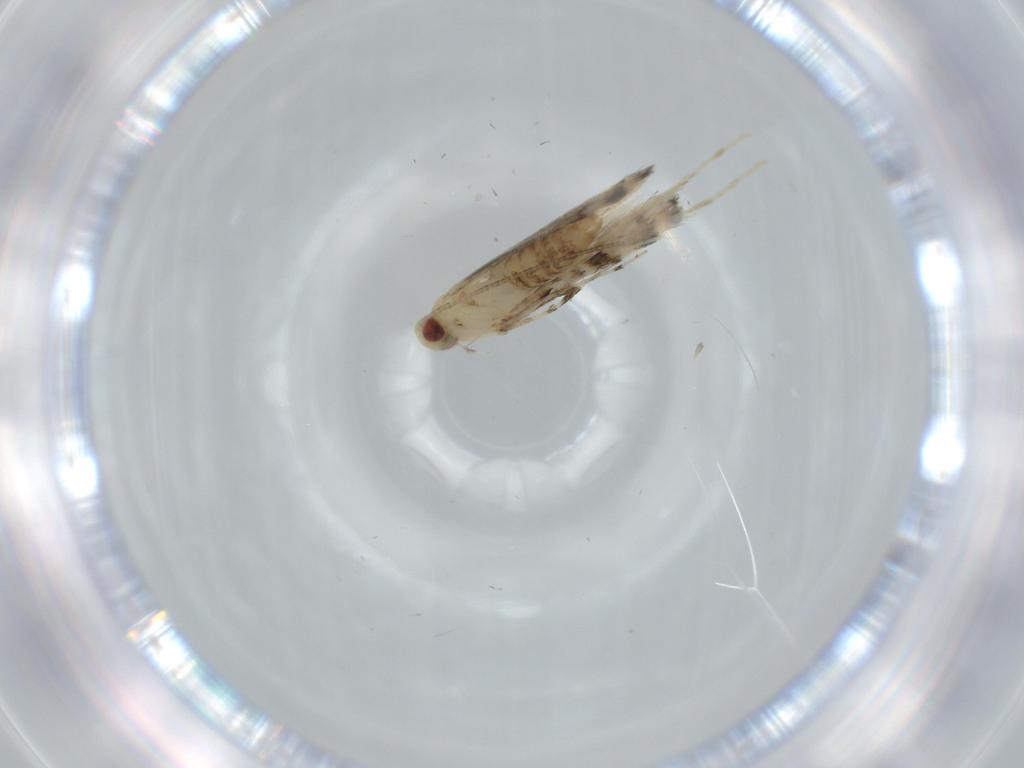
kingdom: Animalia
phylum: Arthropoda
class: Insecta
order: Lepidoptera
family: Gracillariidae
